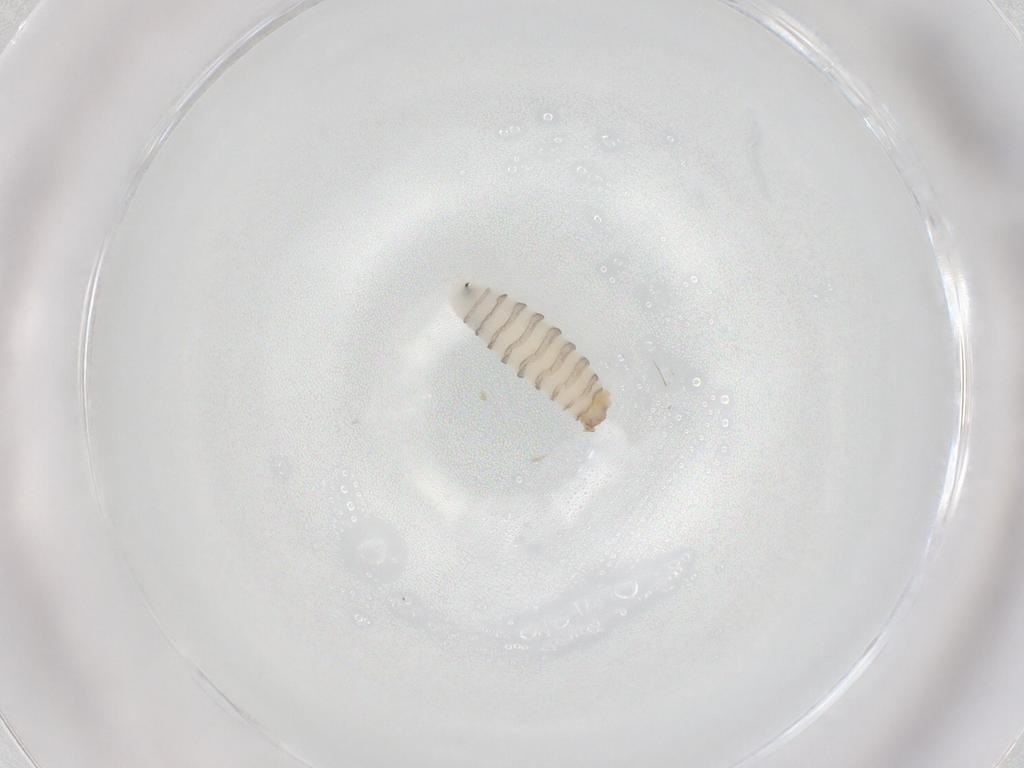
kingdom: Animalia
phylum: Arthropoda
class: Insecta
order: Diptera
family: Sarcophagidae
